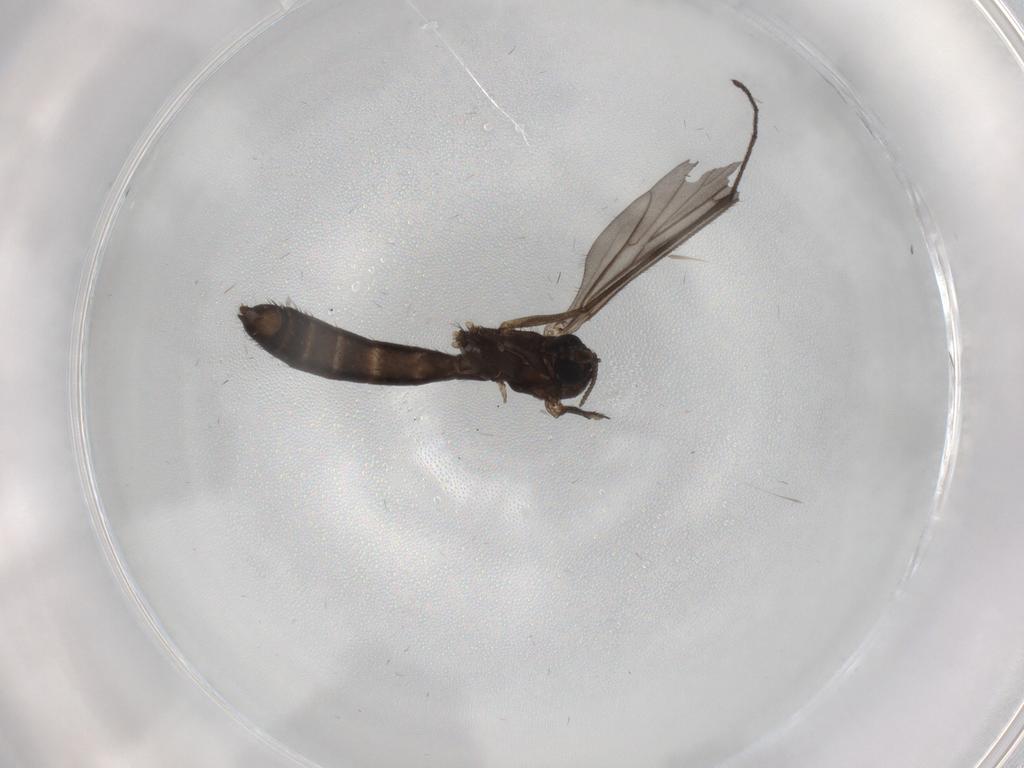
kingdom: Animalia
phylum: Arthropoda
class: Insecta
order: Diptera
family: Keroplatidae
